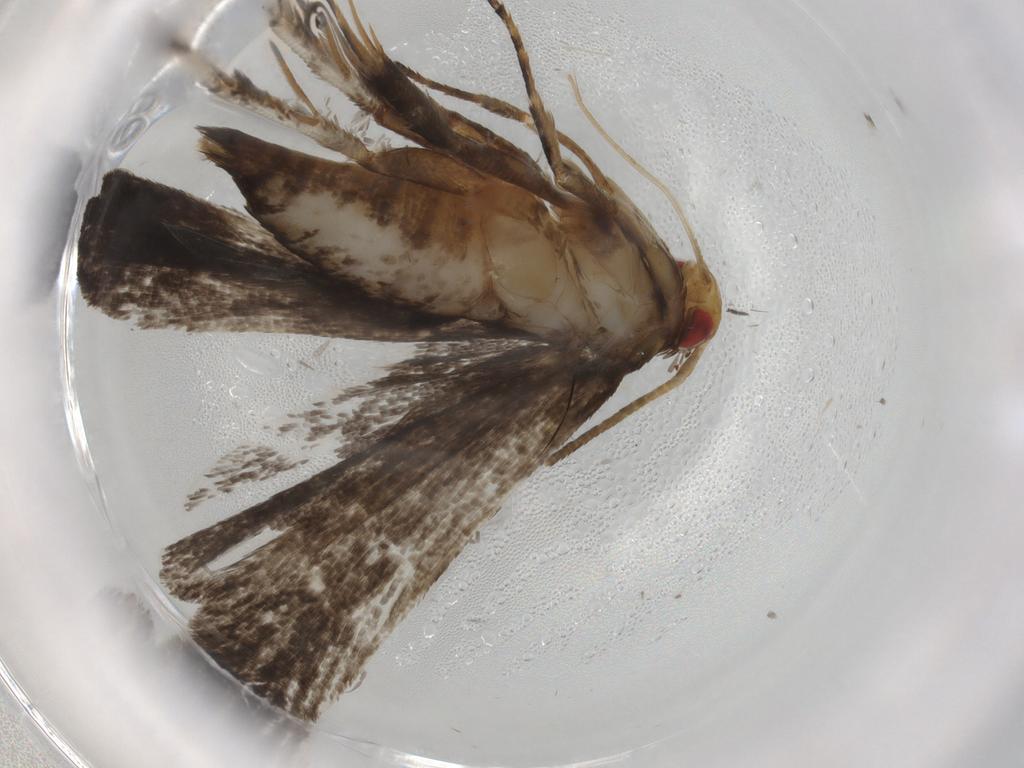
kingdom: Animalia
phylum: Arthropoda
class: Insecta
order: Lepidoptera
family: Gelechiidae
